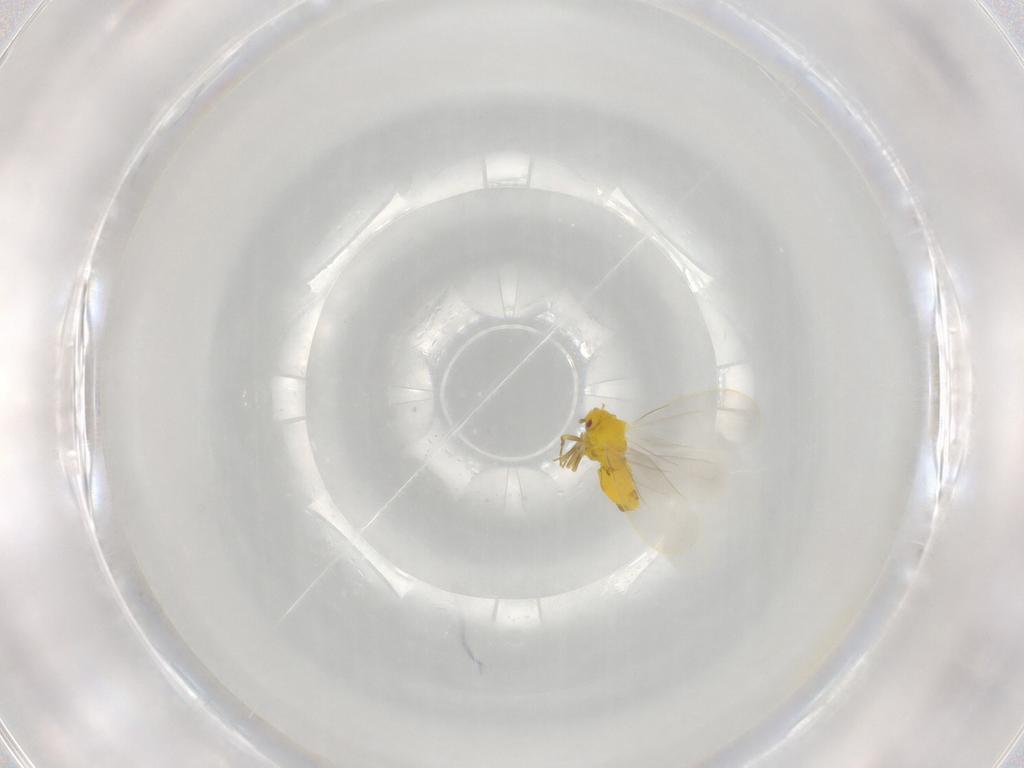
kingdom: Animalia
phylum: Arthropoda
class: Insecta
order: Hemiptera
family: Aleyrodidae
